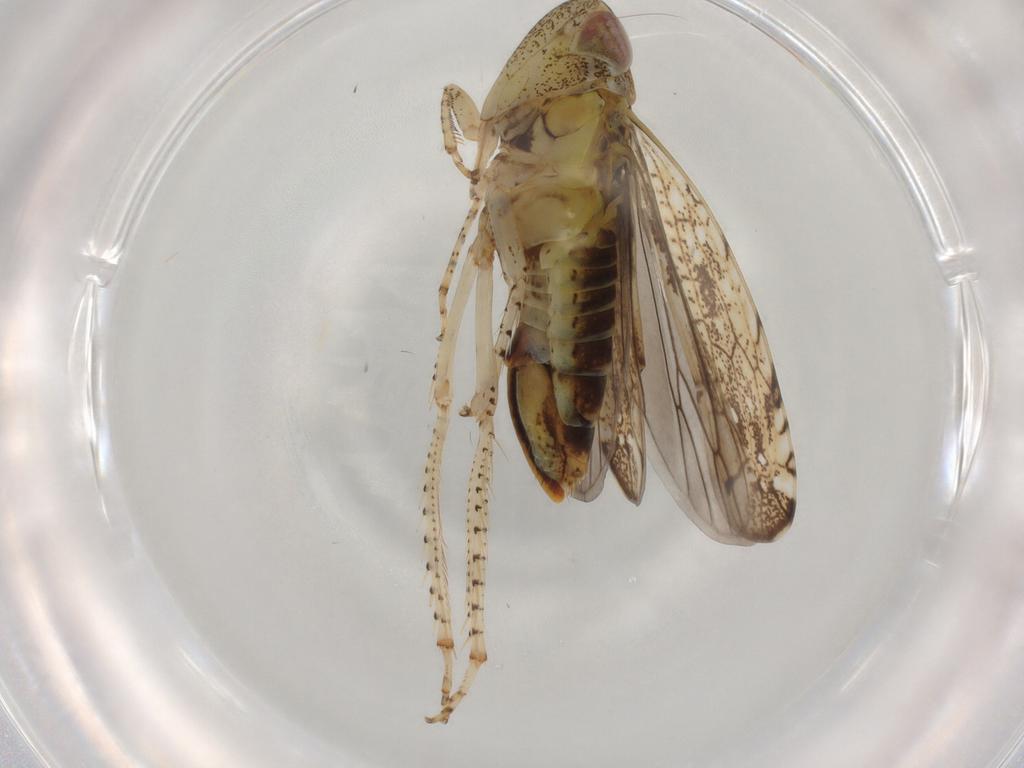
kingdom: Animalia
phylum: Arthropoda
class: Insecta
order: Hemiptera
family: Cicadellidae
